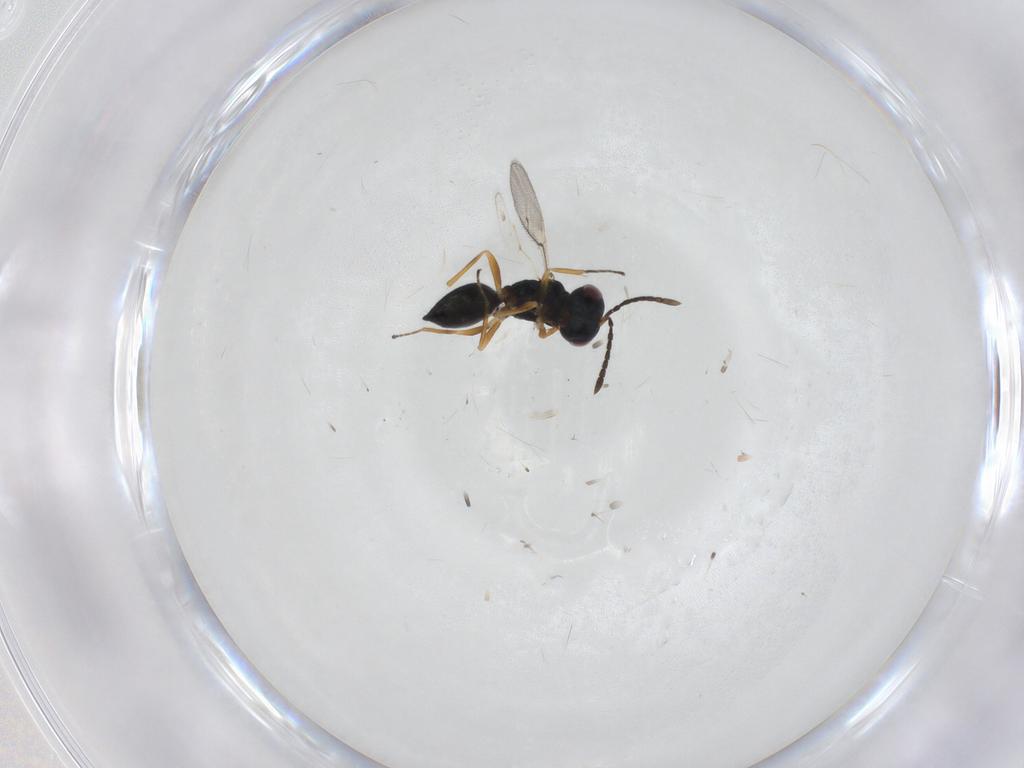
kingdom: Animalia
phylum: Arthropoda
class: Insecta
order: Hymenoptera
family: Pteromalidae
